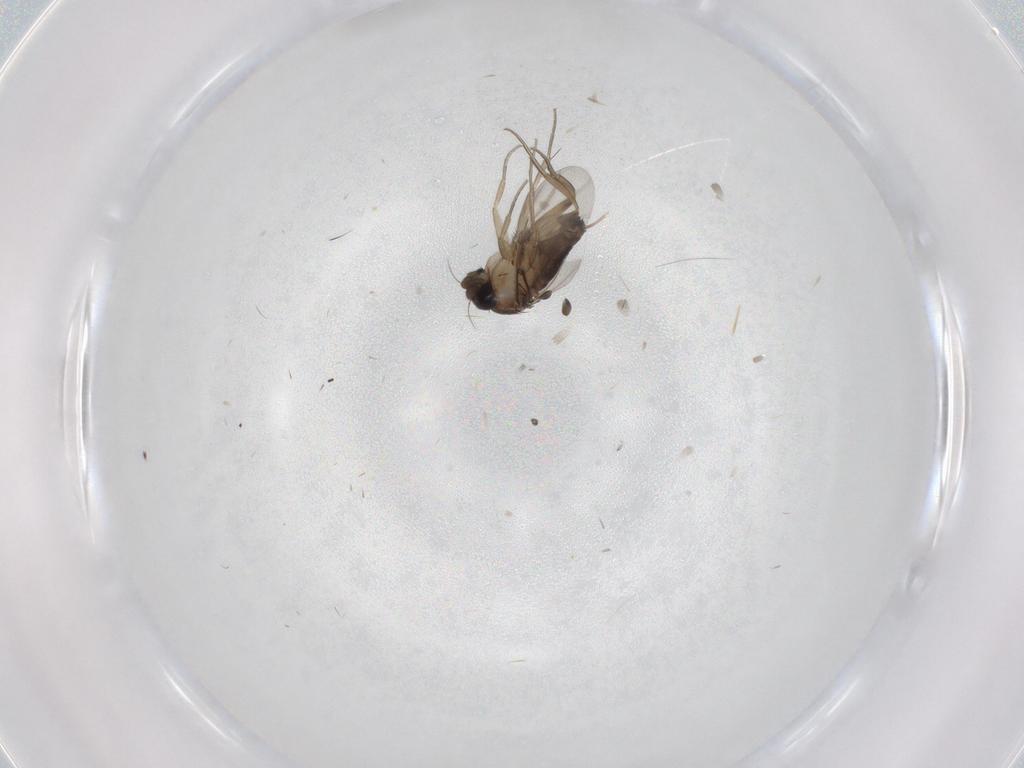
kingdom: Animalia
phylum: Arthropoda
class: Insecta
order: Diptera
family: Phoridae
